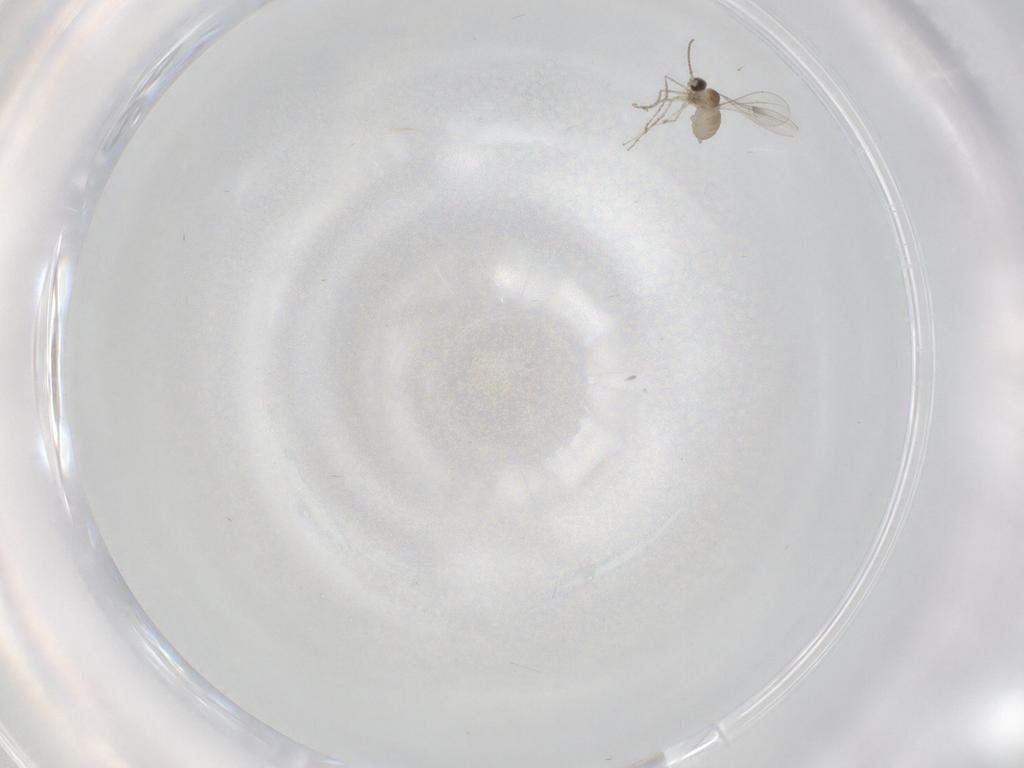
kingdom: Animalia
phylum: Arthropoda
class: Insecta
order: Diptera
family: Cecidomyiidae
